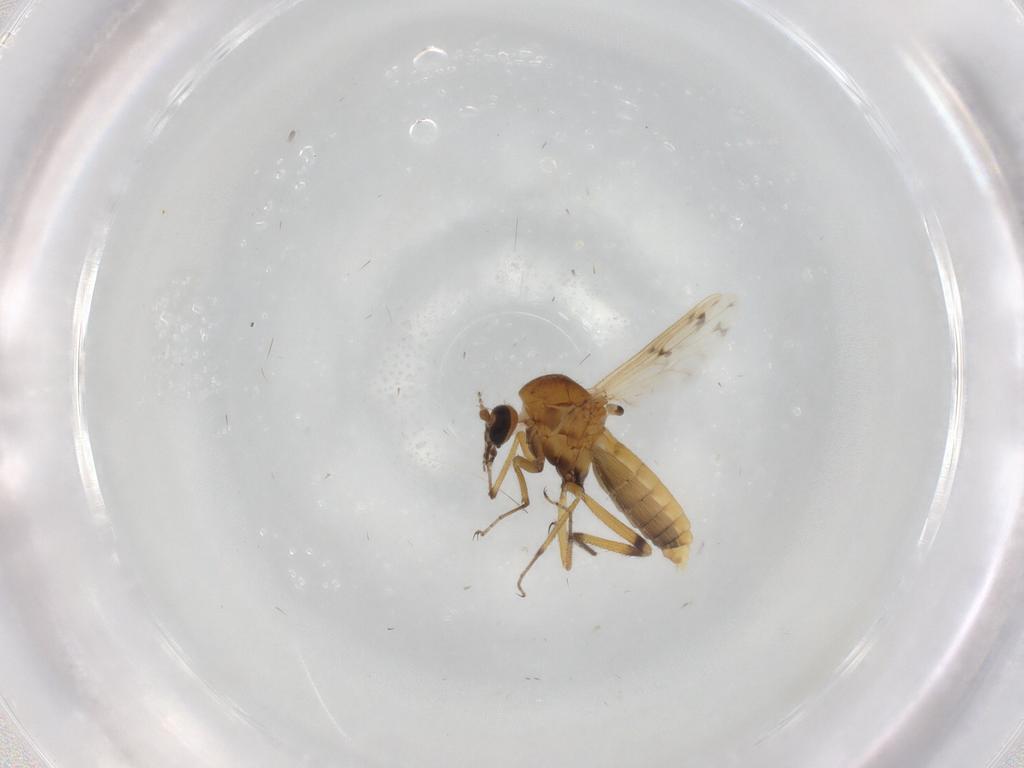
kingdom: Animalia
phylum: Arthropoda
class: Insecta
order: Diptera
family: Ceratopogonidae
